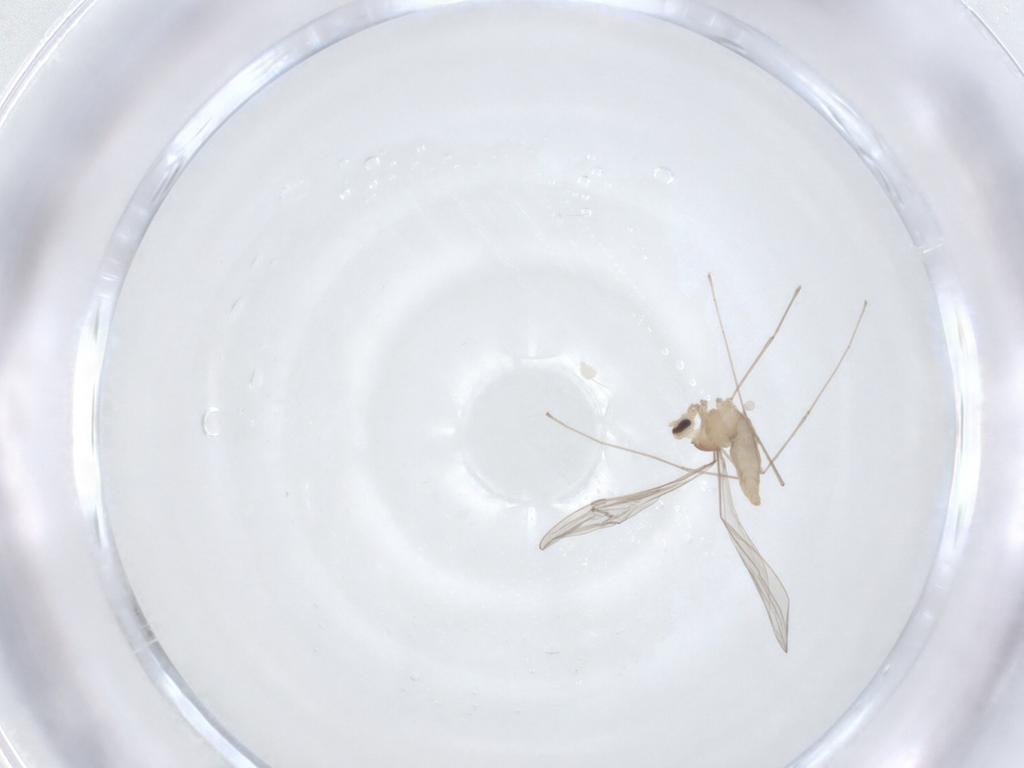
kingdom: Animalia
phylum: Arthropoda
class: Insecta
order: Diptera
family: Cecidomyiidae
